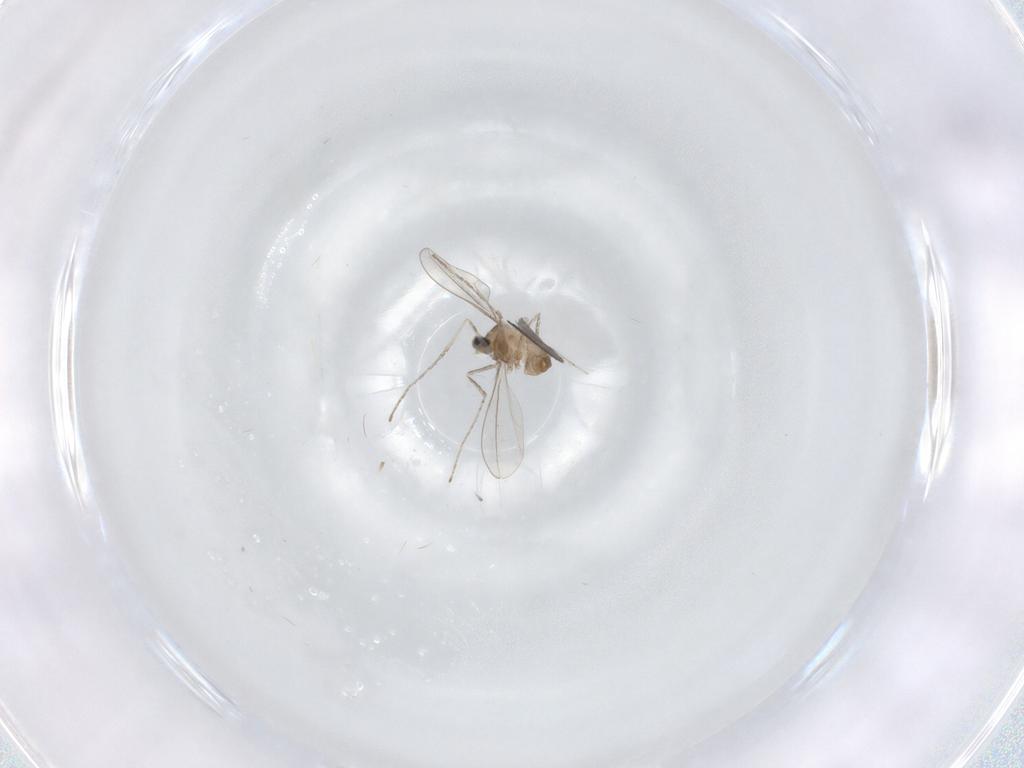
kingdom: Animalia
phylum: Arthropoda
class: Insecta
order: Diptera
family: Cecidomyiidae
